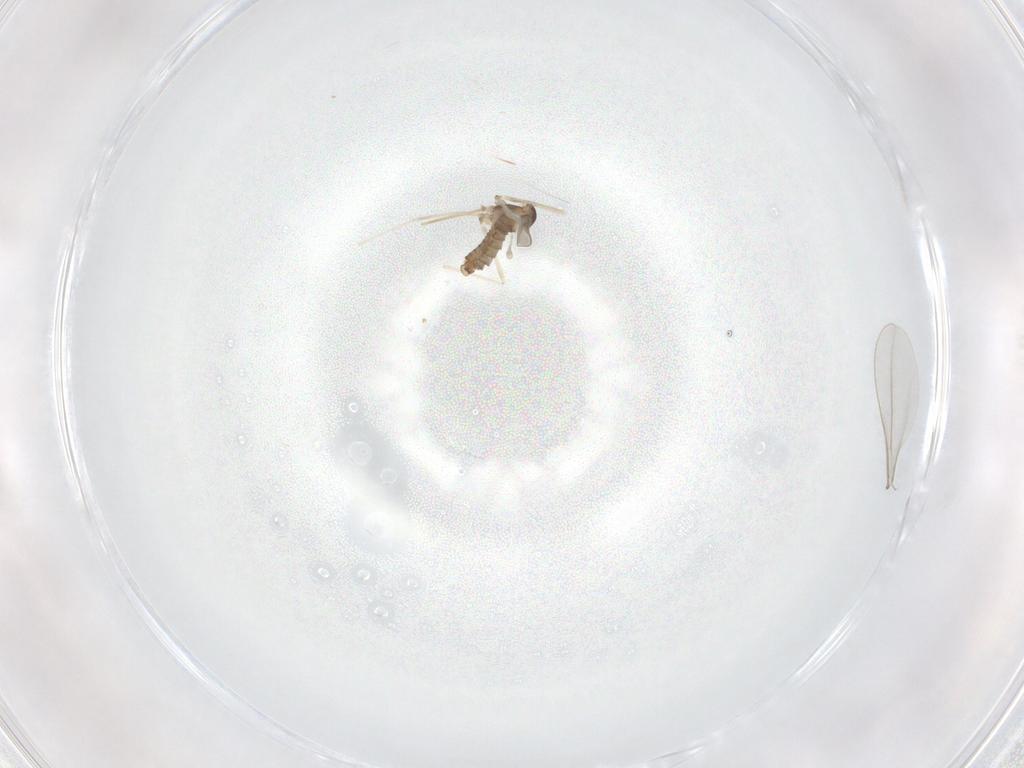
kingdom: Animalia
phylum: Arthropoda
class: Insecta
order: Diptera
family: Cecidomyiidae
